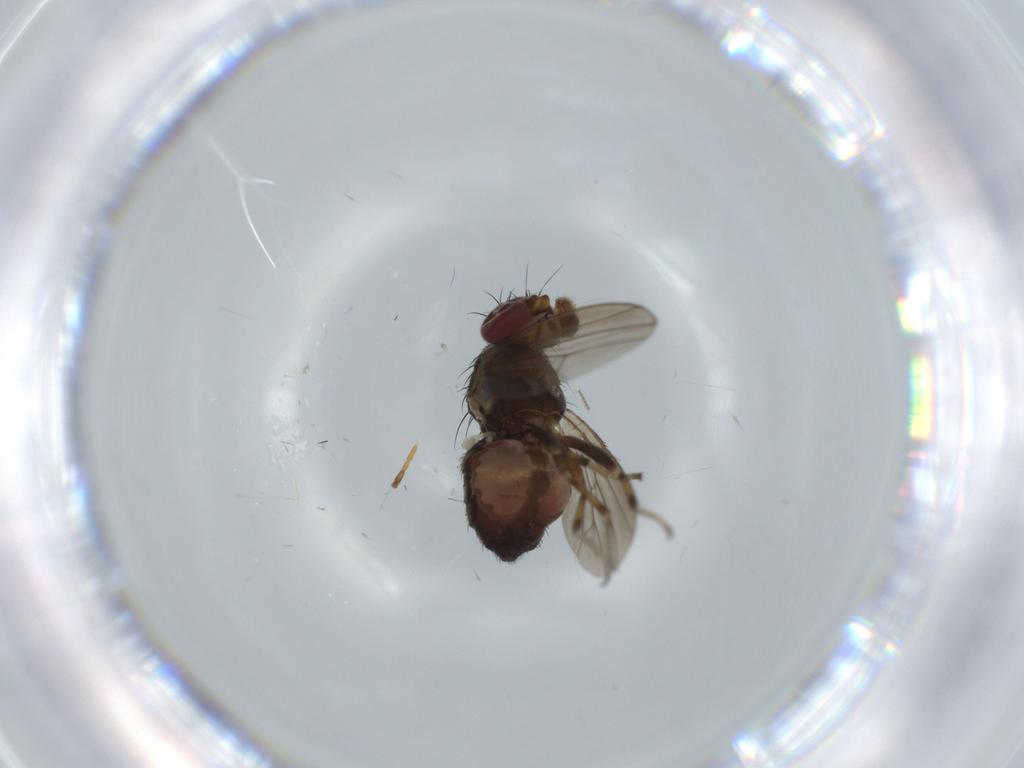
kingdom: Animalia
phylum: Arthropoda
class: Insecta
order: Diptera
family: Heleomyzidae
